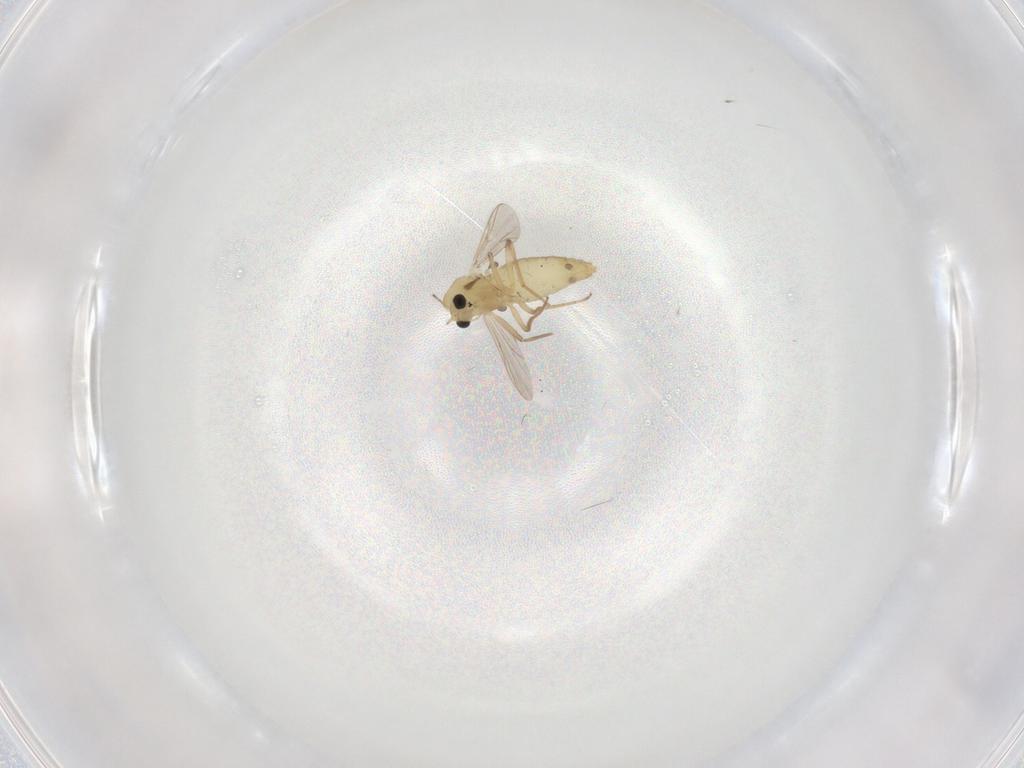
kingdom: Animalia
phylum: Arthropoda
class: Insecta
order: Diptera
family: Chironomidae
